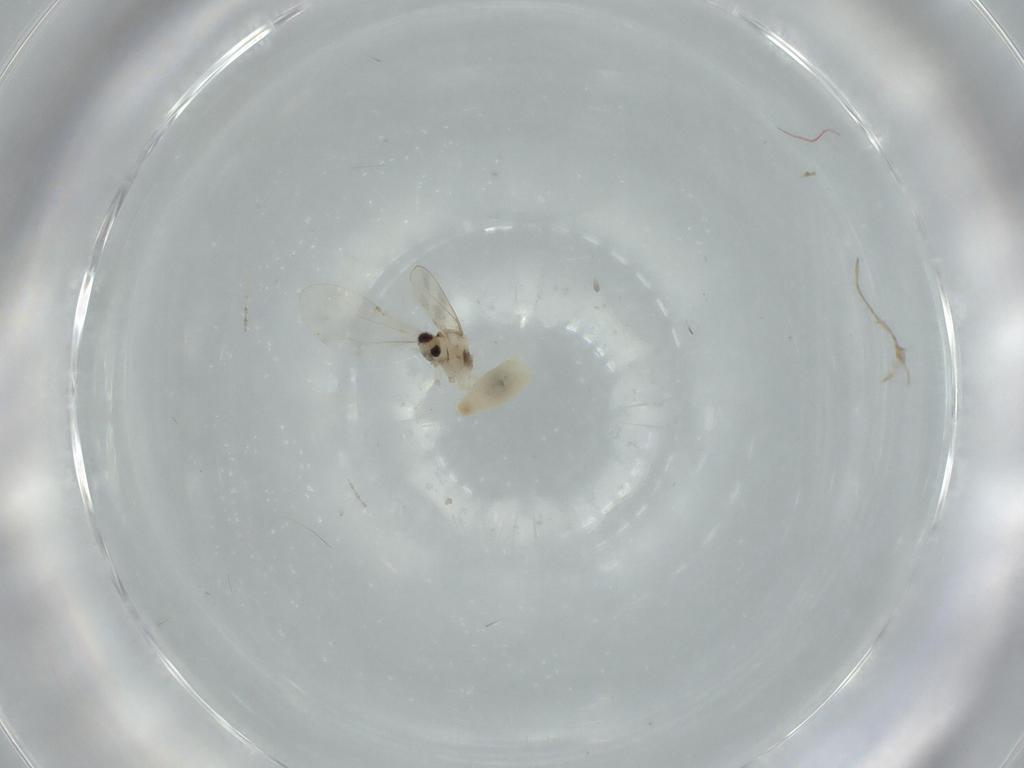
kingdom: Animalia
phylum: Arthropoda
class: Insecta
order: Diptera
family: Cecidomyiidae
